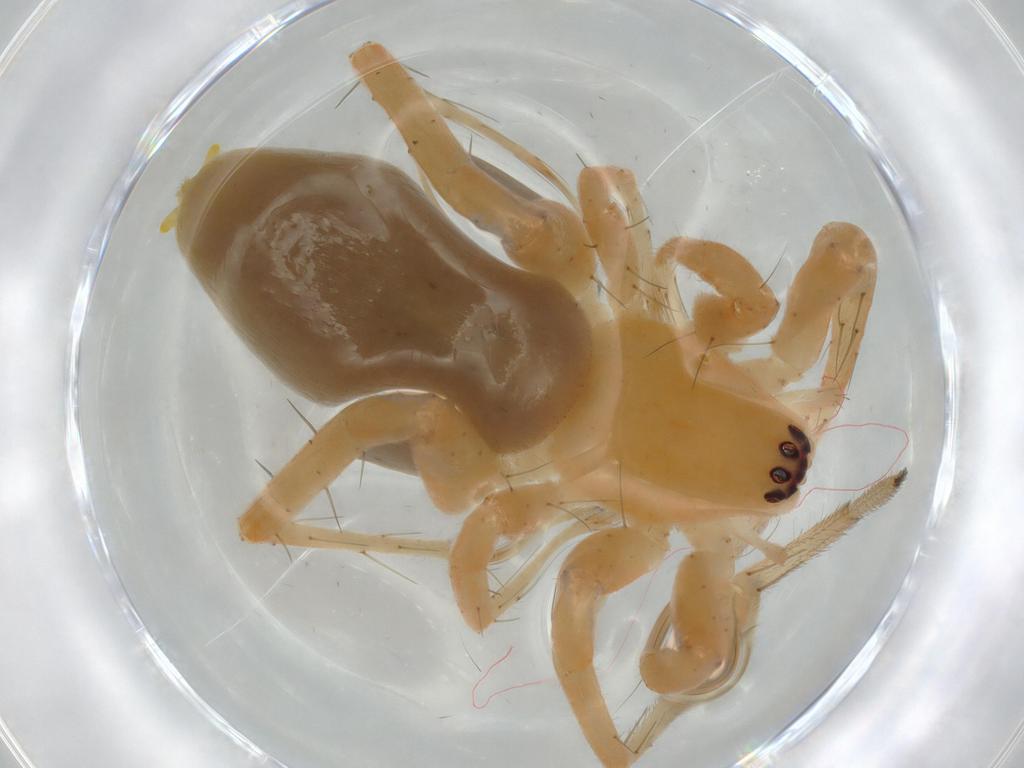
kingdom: Animalia
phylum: Arthropoda
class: Arachnida
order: Araneae
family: Anyphaenidae
